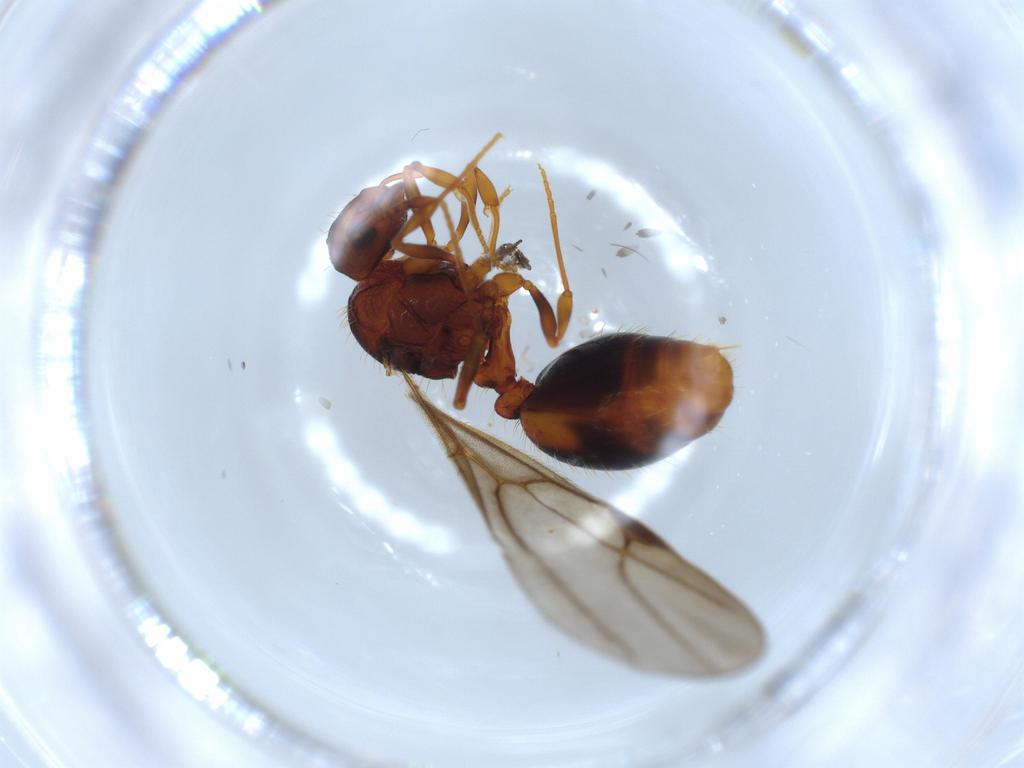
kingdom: Animalia
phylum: Arthropoda
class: Insecta
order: Hymenoptera
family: Formicidae
